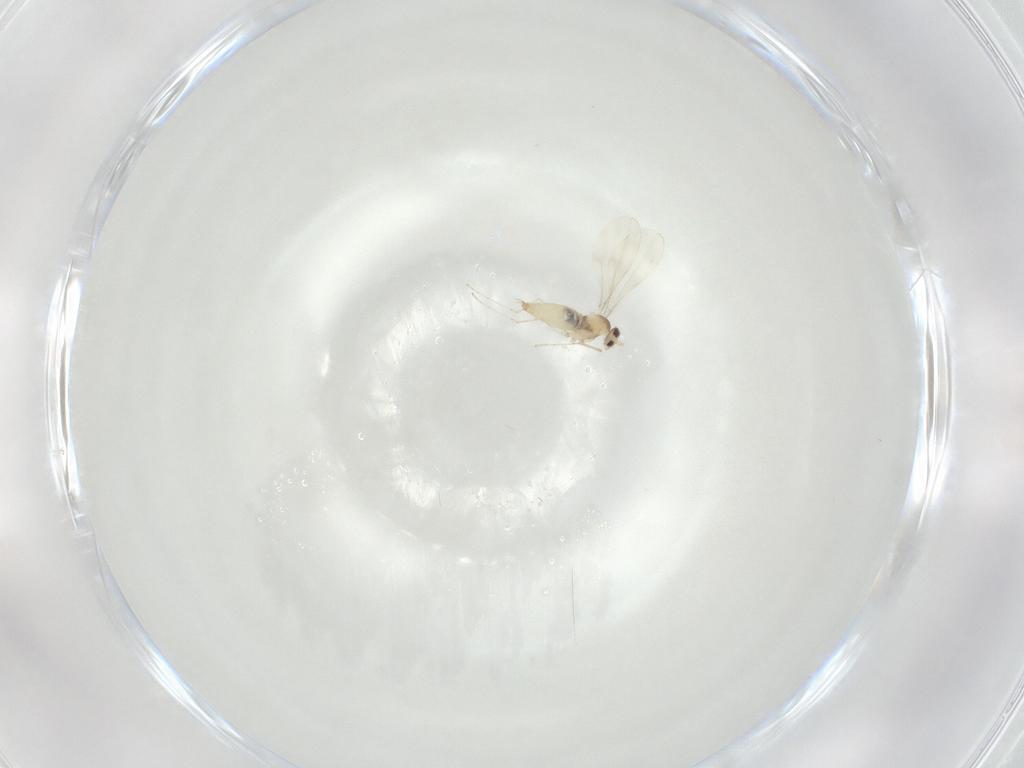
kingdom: Animalia
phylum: Arthropoda
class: Insecta
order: Diptera
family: Cecidomyiidae
